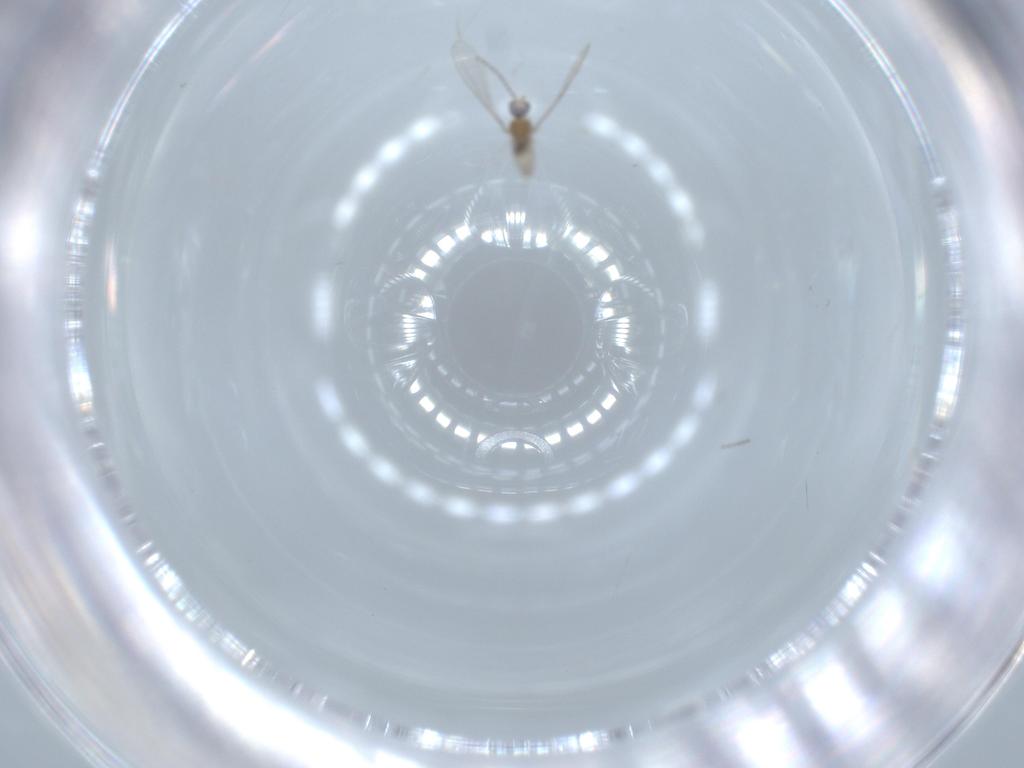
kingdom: Animalia
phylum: Arthropoda
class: Insecta
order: Diptera
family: Cecidomyiidae
